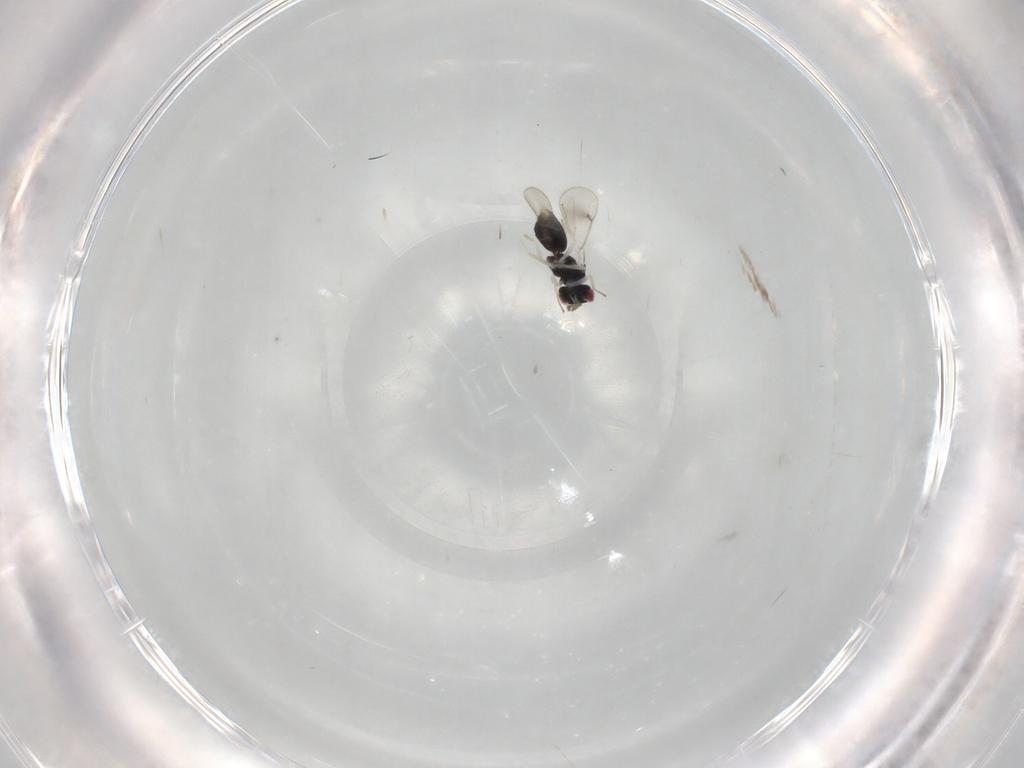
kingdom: Animalia
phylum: Arthropoda
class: Insecta
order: Hymenoptera
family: Eulophidae
